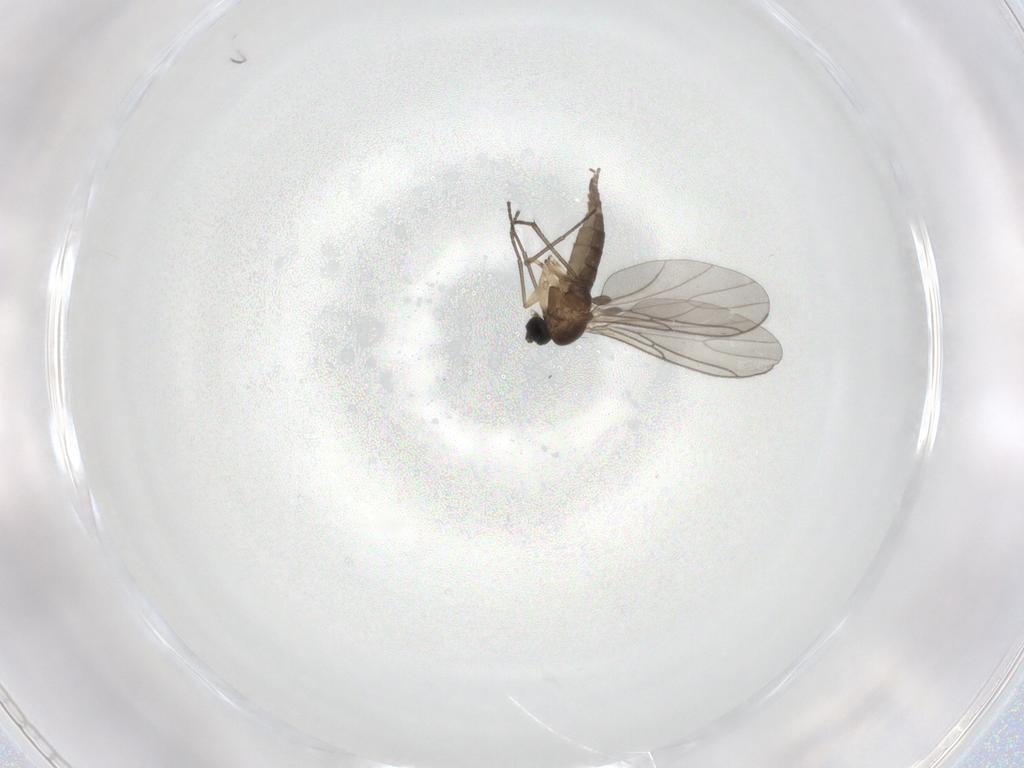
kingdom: Animalia
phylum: Arthropoda
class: Insecta
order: Diptera
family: Sciaridae
